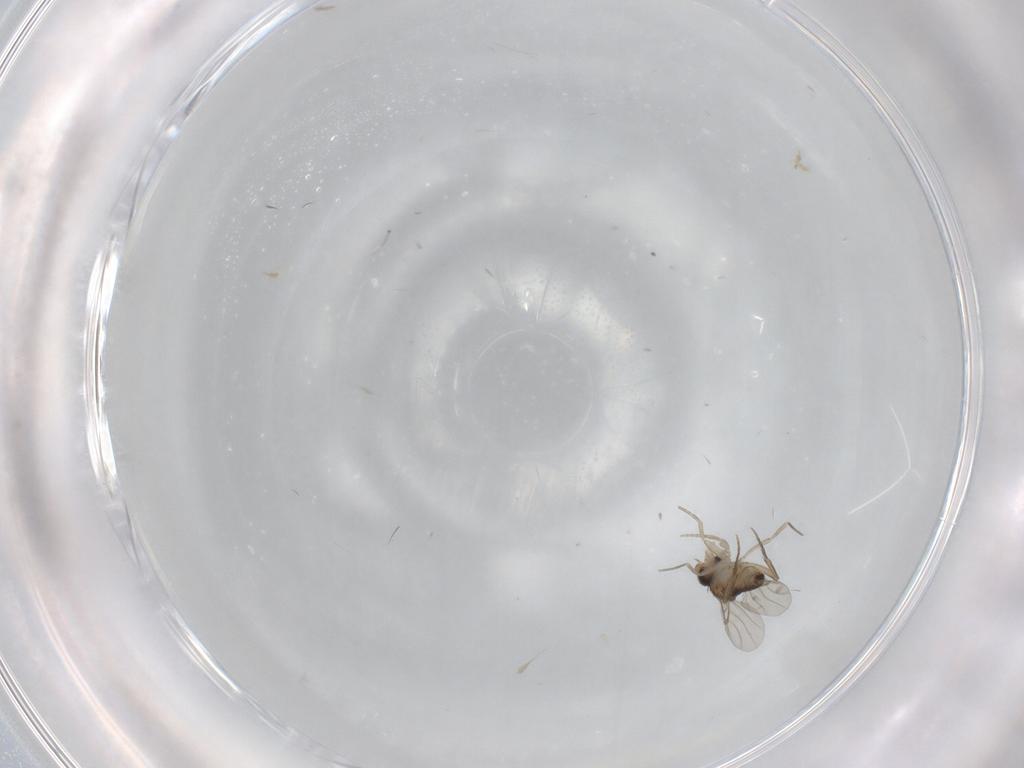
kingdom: Animalia
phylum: Arthropoda
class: Insecta
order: Diptera
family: Phoridae
